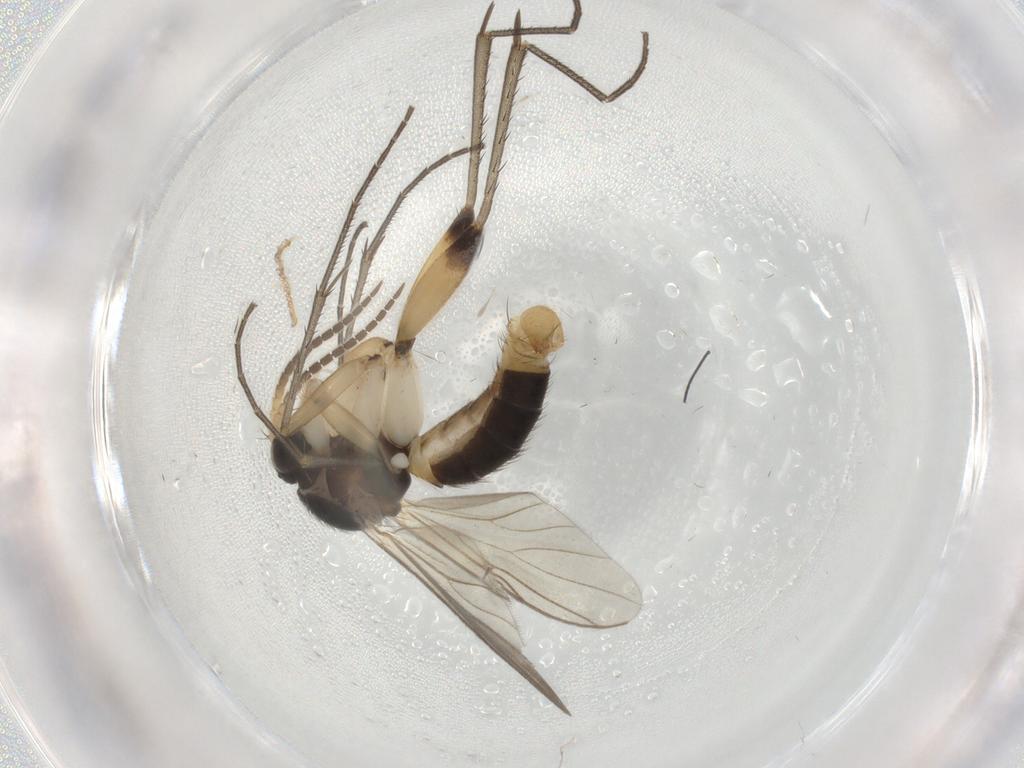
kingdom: Animalia
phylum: Arthropoda
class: Insecta
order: Diptera
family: Mycetophilidae
